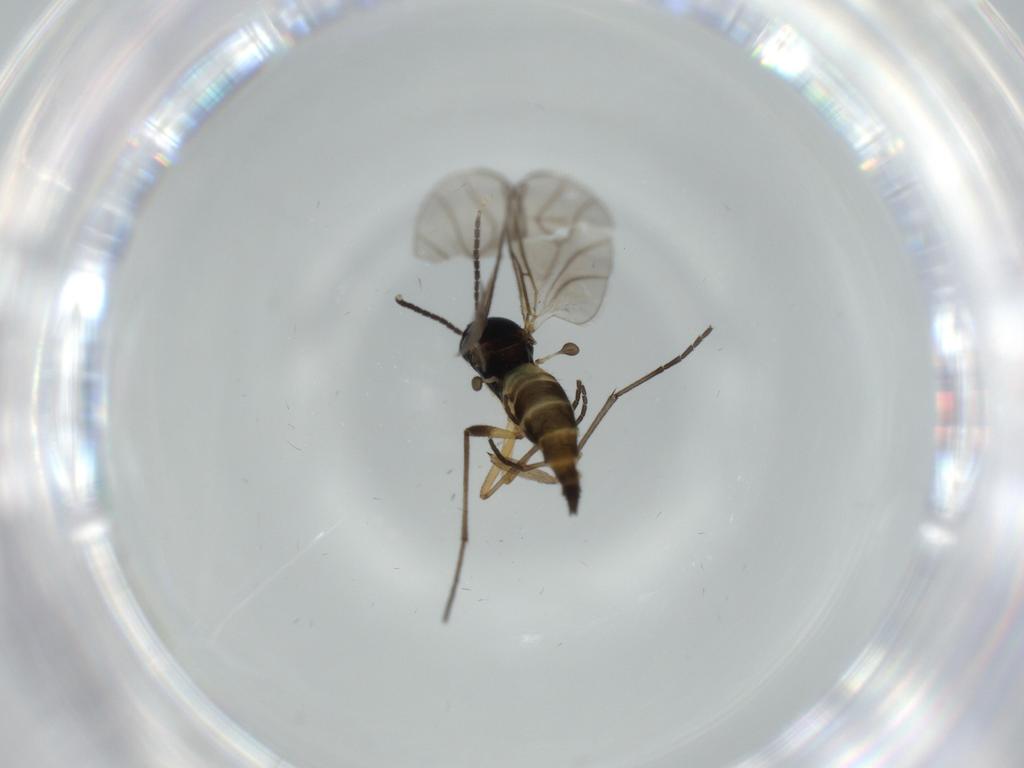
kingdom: Animalia
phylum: Arthropoda
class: Insecta
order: Diptera
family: Sciaridae
